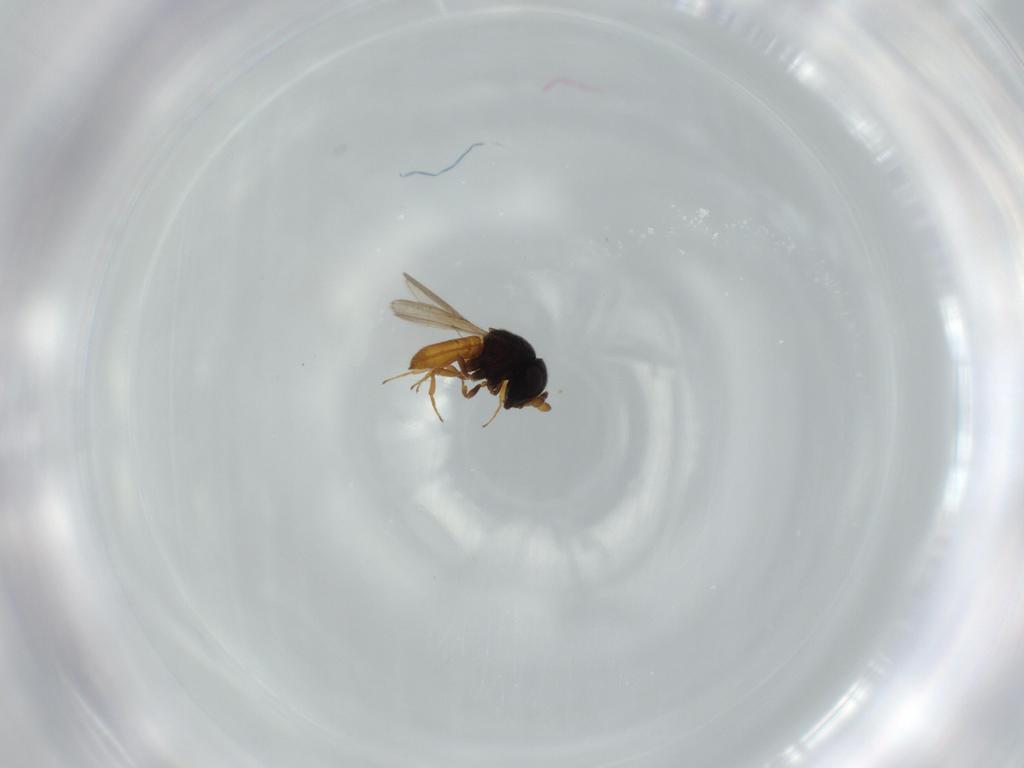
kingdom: Animalia
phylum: Arthropoda
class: Insecta
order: Hymenoptera
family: Scelionidae
